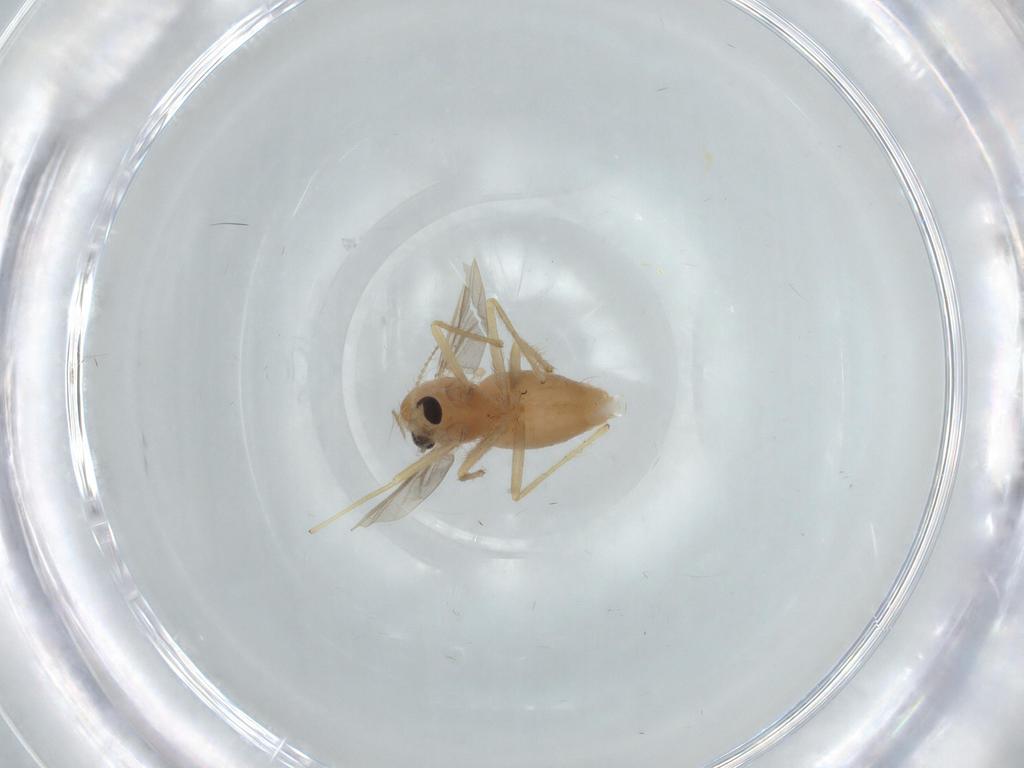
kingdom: Animalia
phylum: Arthropoda
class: Insecta
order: Diptera
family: Chironomidae
